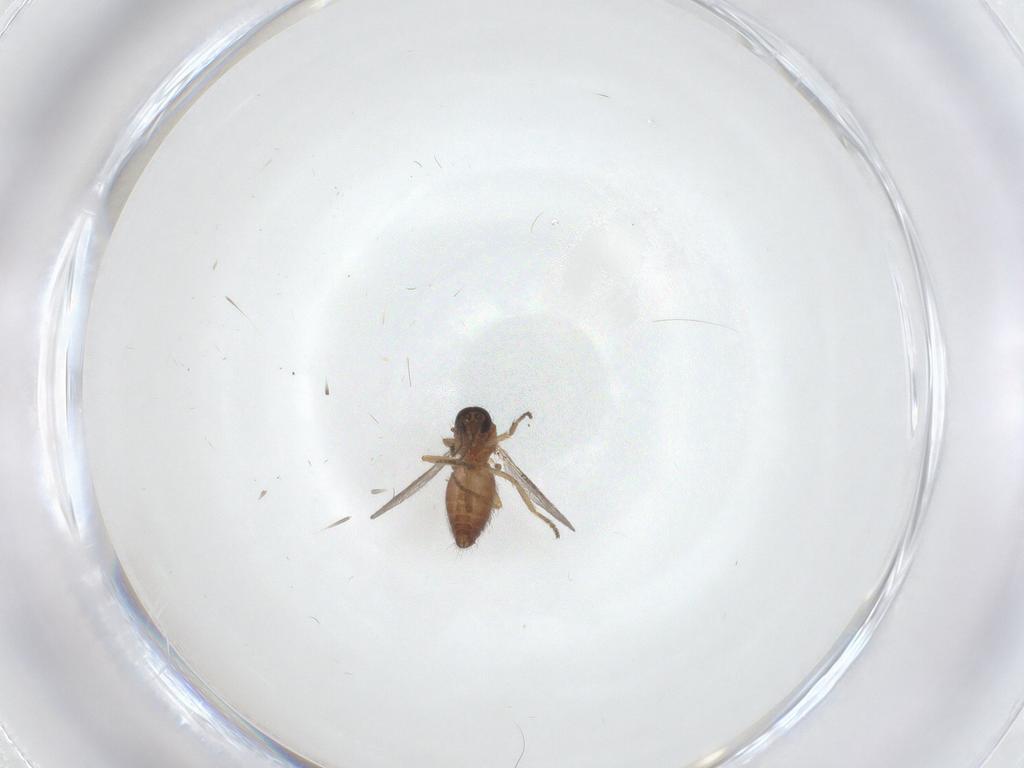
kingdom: Animalia
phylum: Arthropoda
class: Insecta
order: Diptera
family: Ceratopogonidae
